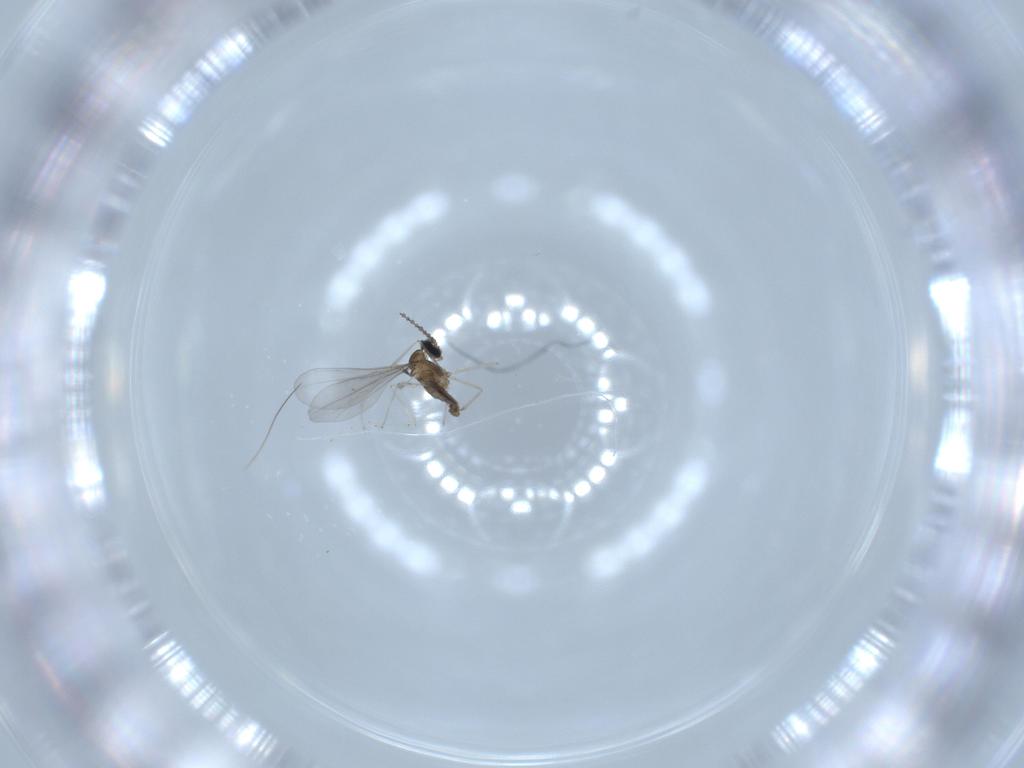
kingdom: Animalia
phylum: Arthropoda
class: Insecta
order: Diptera
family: Cecidomyiidae
